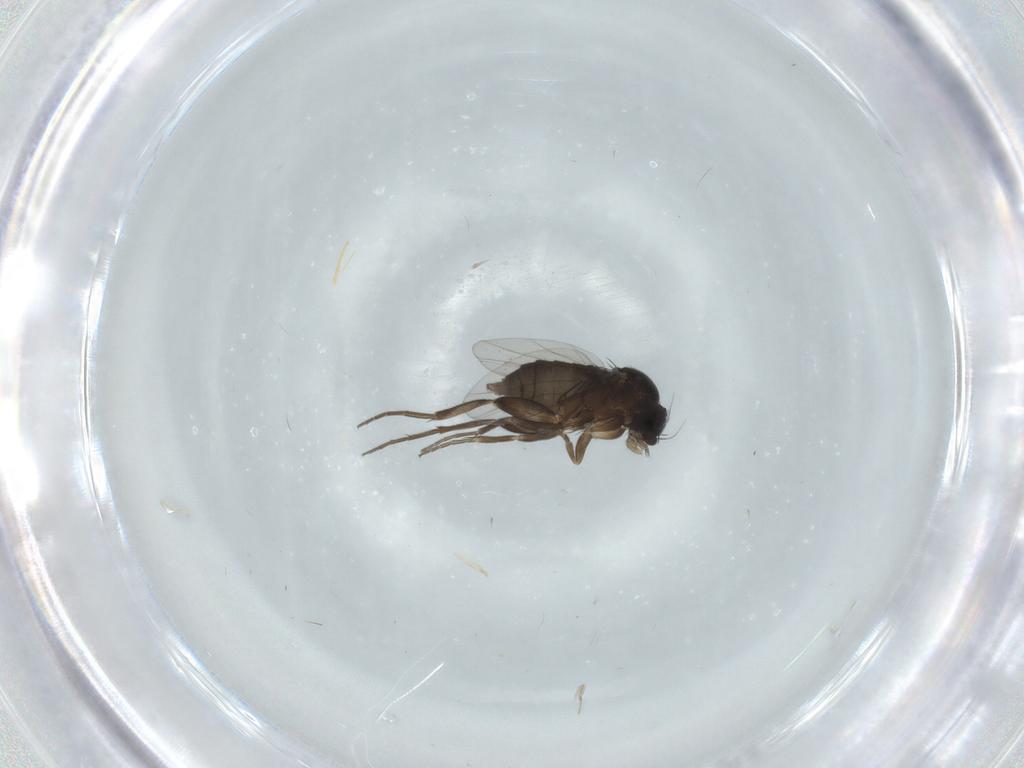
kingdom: Animalia
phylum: Arthropoda
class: Insecta
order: Diptera
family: Phoridae
